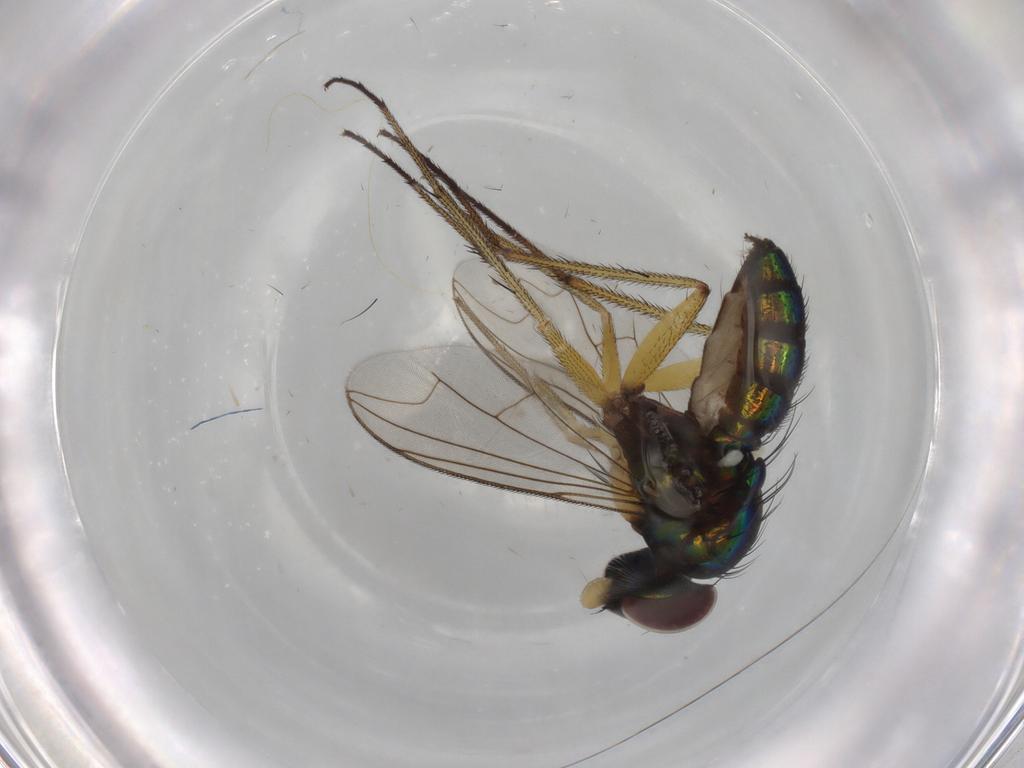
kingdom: Animalia
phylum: Arthropoda
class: Insecta
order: Diptera
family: Dolichopodidae
